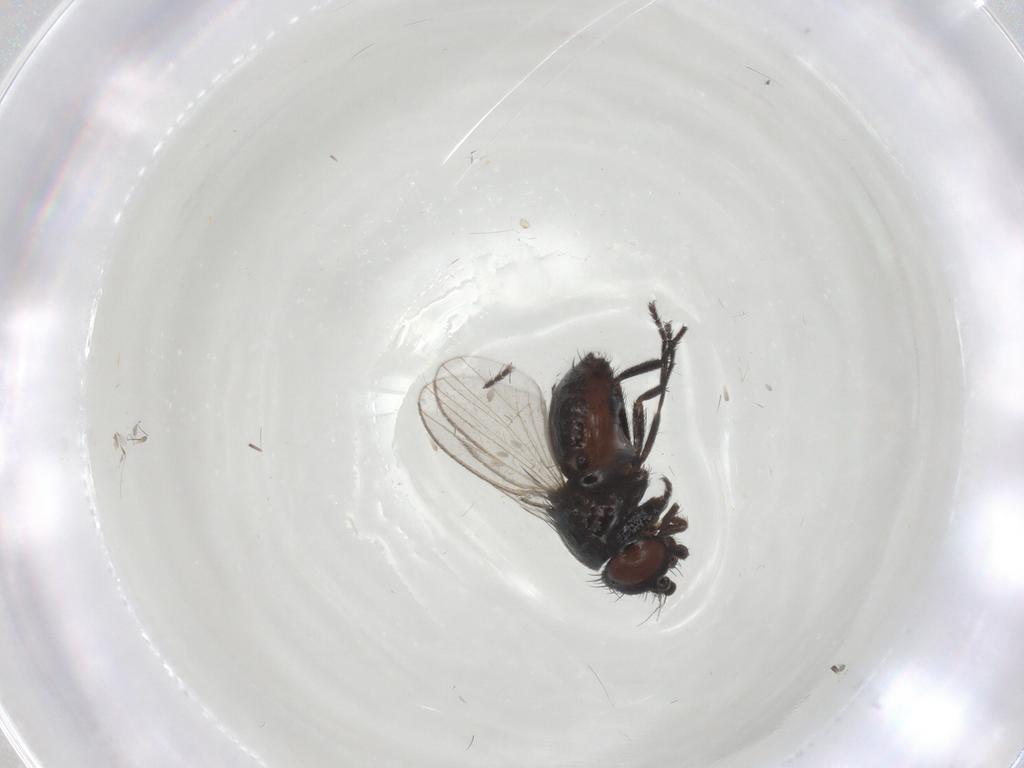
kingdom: Animalia
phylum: Arthropoda
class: Insecta
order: Diptera
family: Milichiidae
